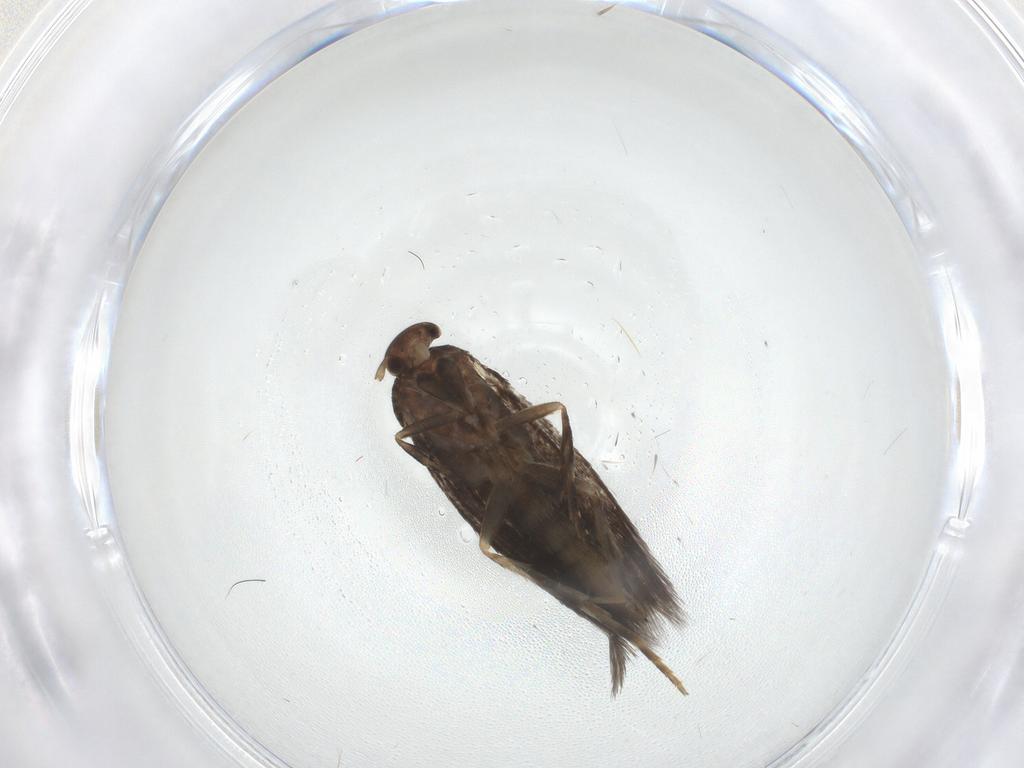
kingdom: Animalia
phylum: Arthropoda
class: Insecta
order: Lepidoptera
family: Elachistidae
